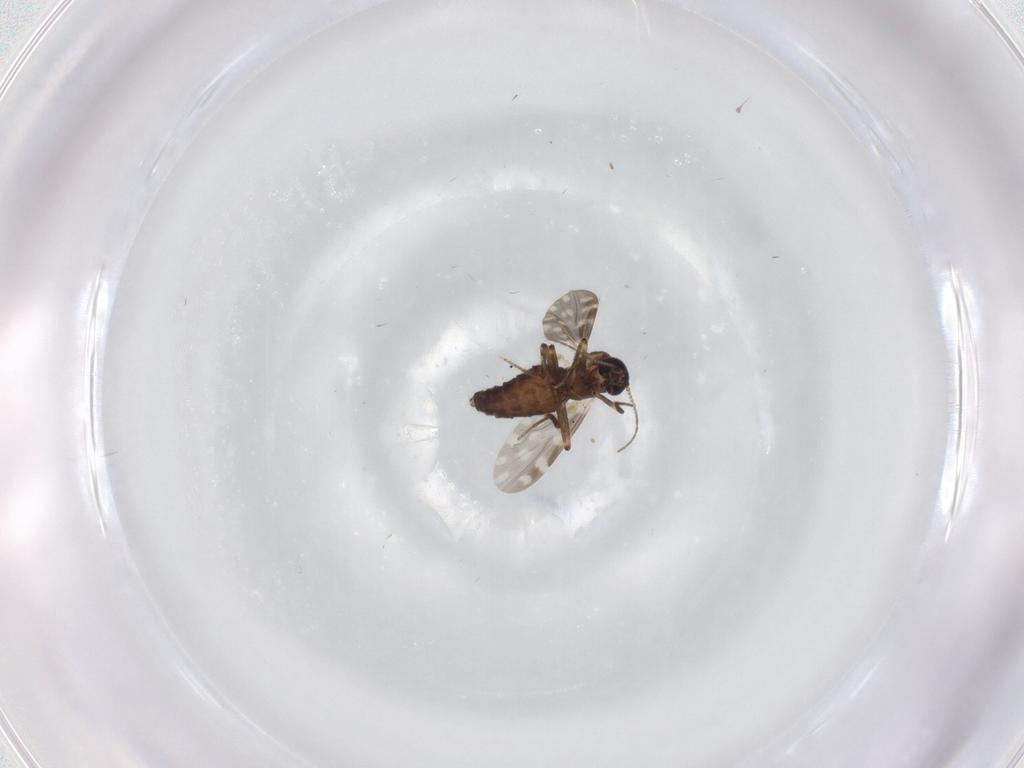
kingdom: Animalia
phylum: Arthropoda
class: Insecta
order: Diptera
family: Ceratopogonidae
